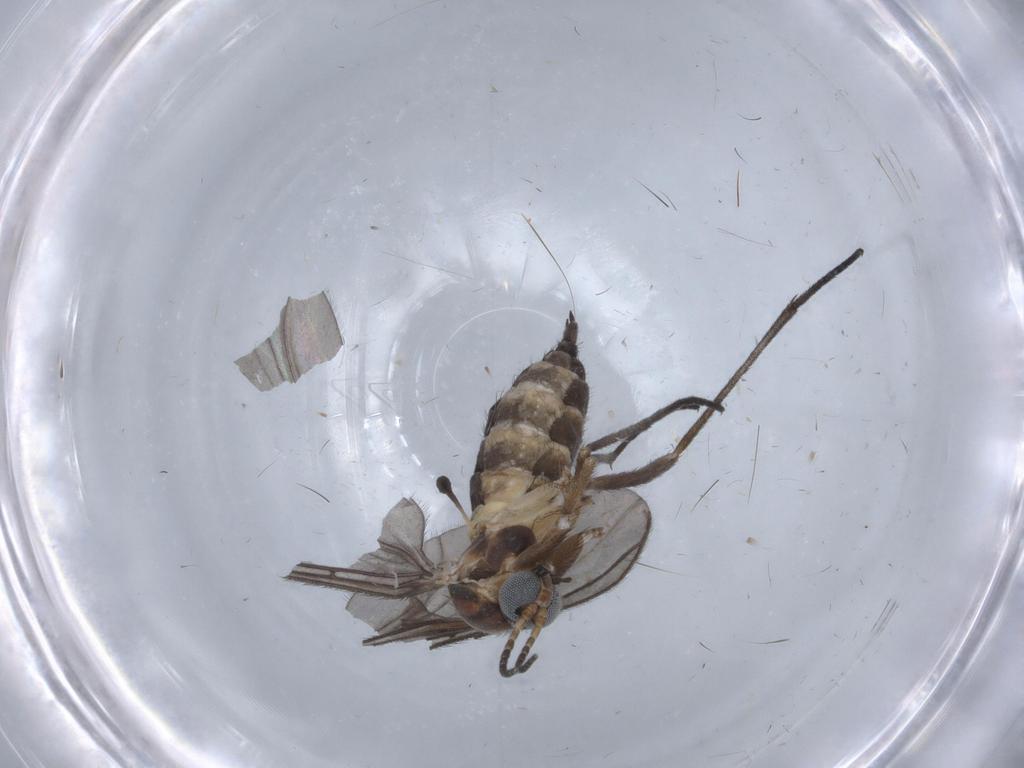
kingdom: Animalia
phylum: Arthropoda
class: Insecta
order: Diptera
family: Sciaridae
